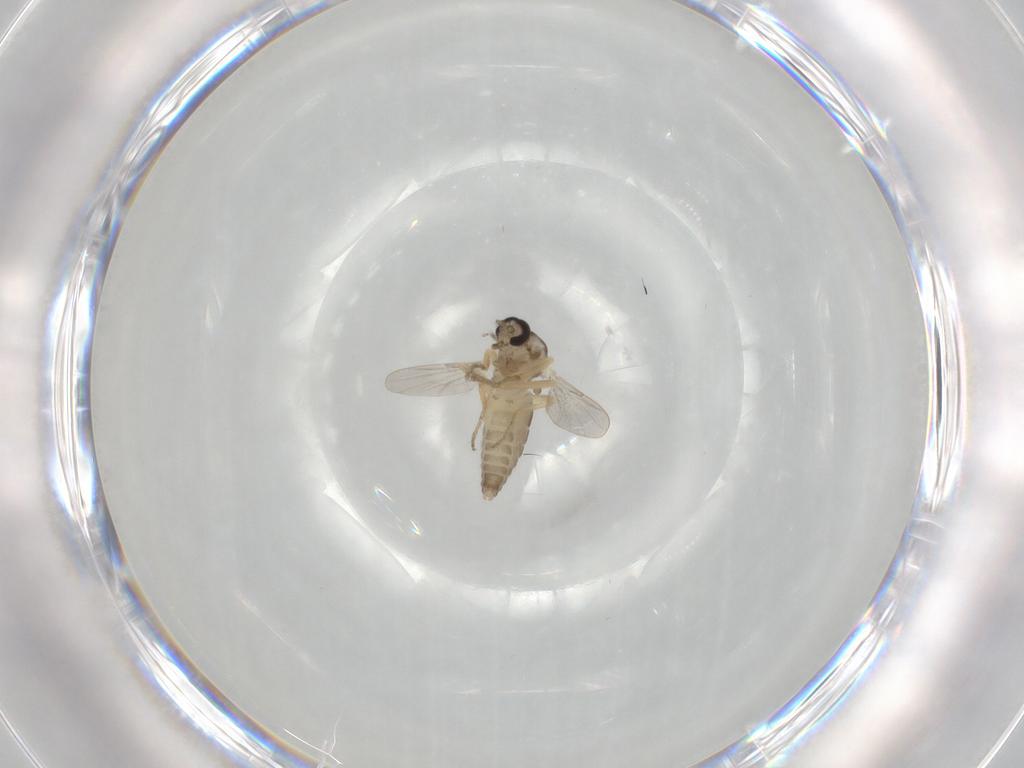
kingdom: Animalia
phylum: Arthropoda
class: Insecta
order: Diptera
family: Ceratopogonidae
